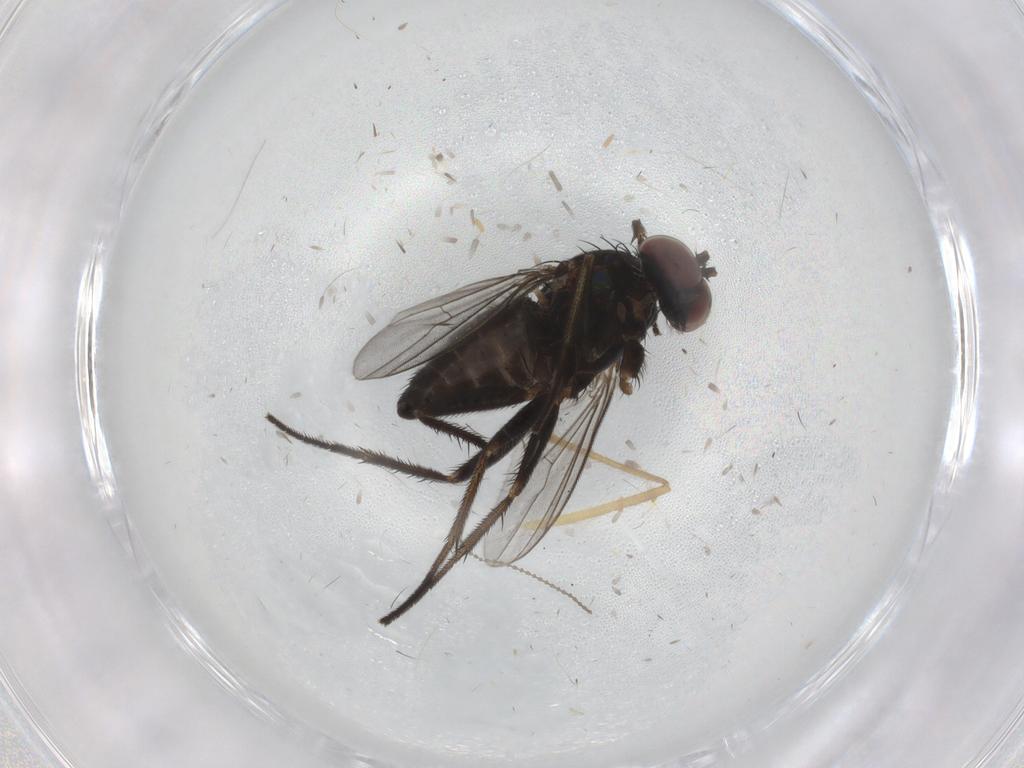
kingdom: Animalia
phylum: Arthropoda
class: Insecta
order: Diptera
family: Dolichopodidae
